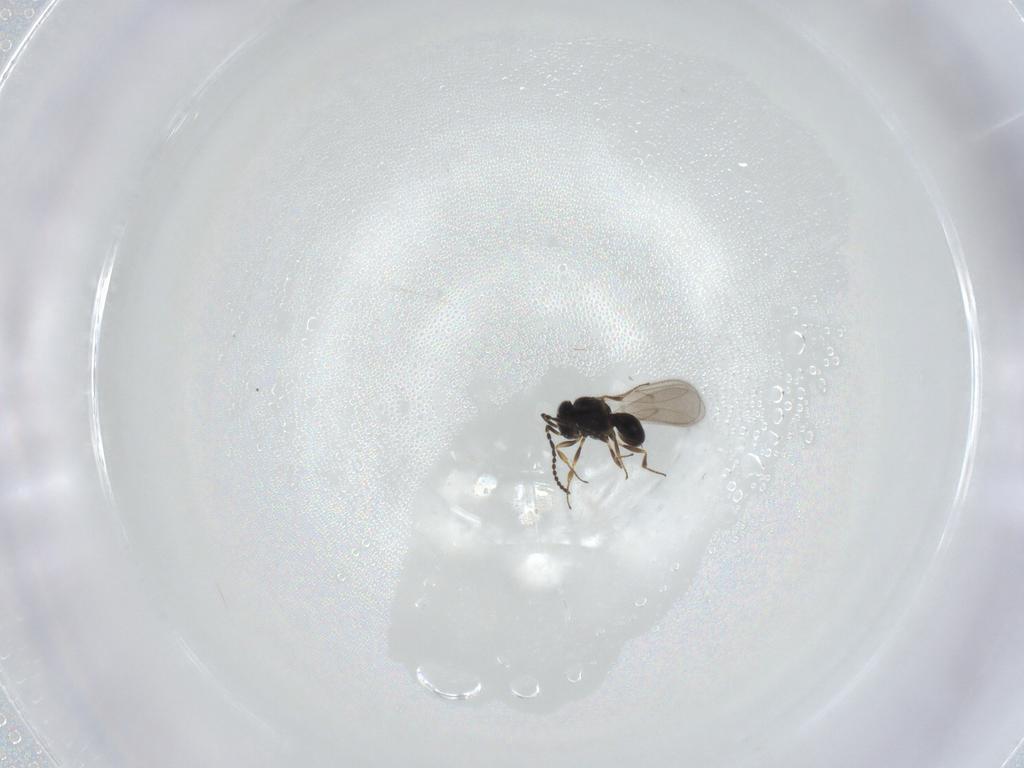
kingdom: Animalia
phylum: Arthropoda
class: Insecta
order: Hymenoptera
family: Scelionidae
